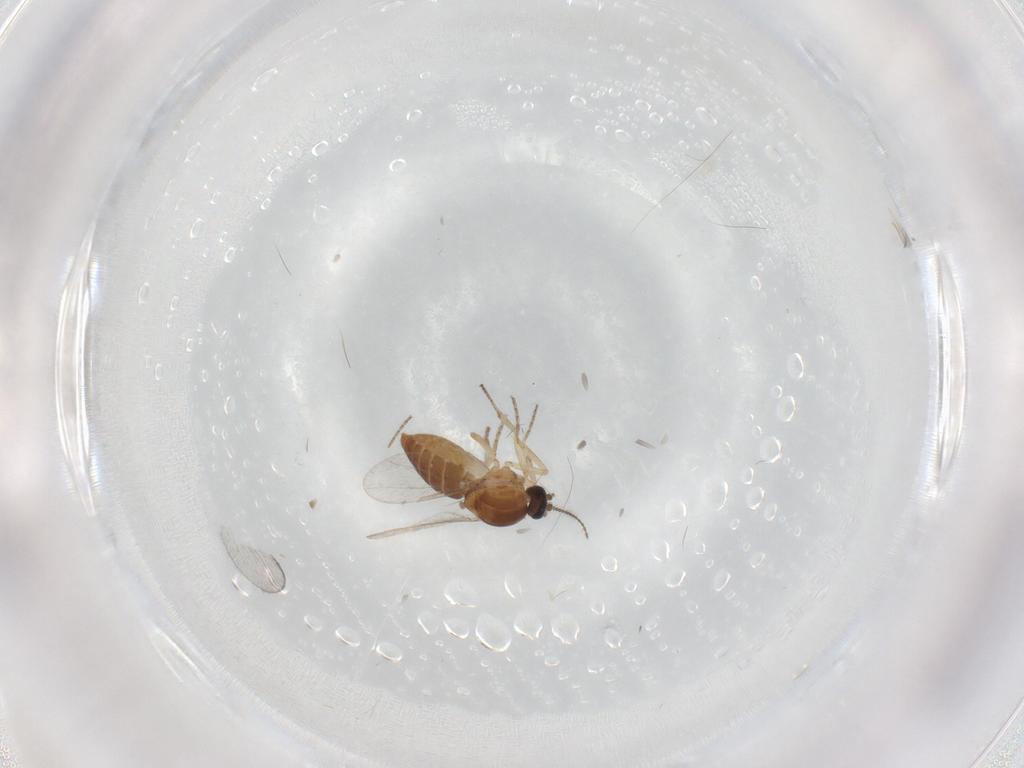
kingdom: Animalia
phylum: Arthropoda
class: Insecta
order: Diptera
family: Ceratopogonidae
